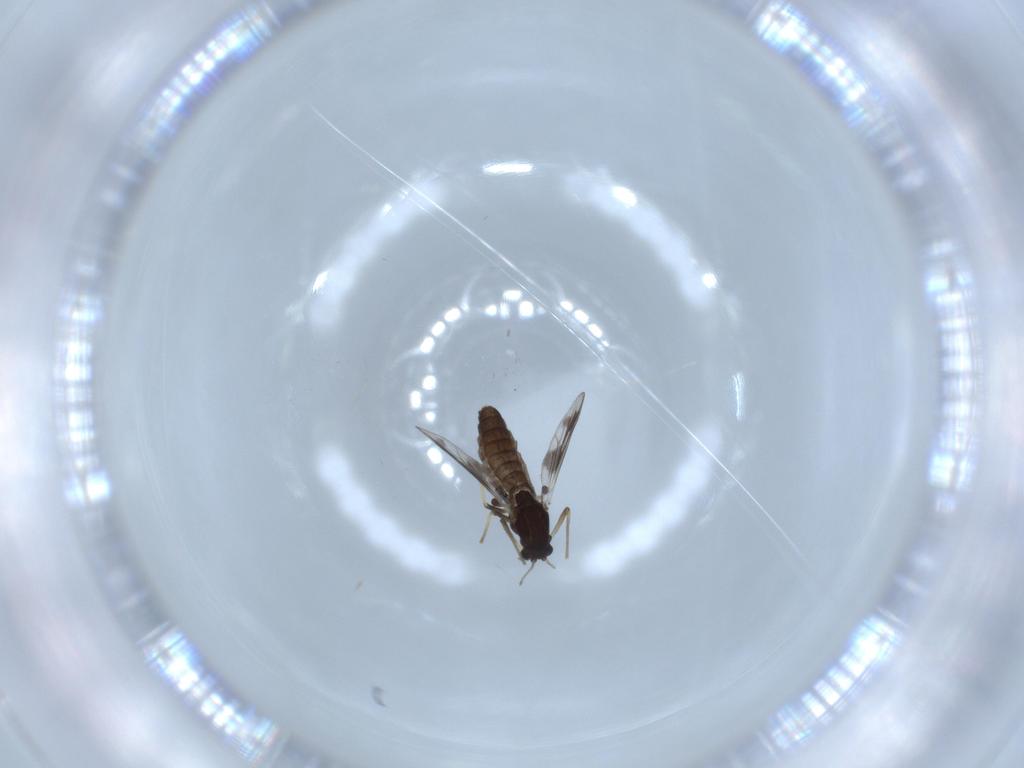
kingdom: Animalia
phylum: Arthropoda
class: Insecta
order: Diptera
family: Chironomidae
